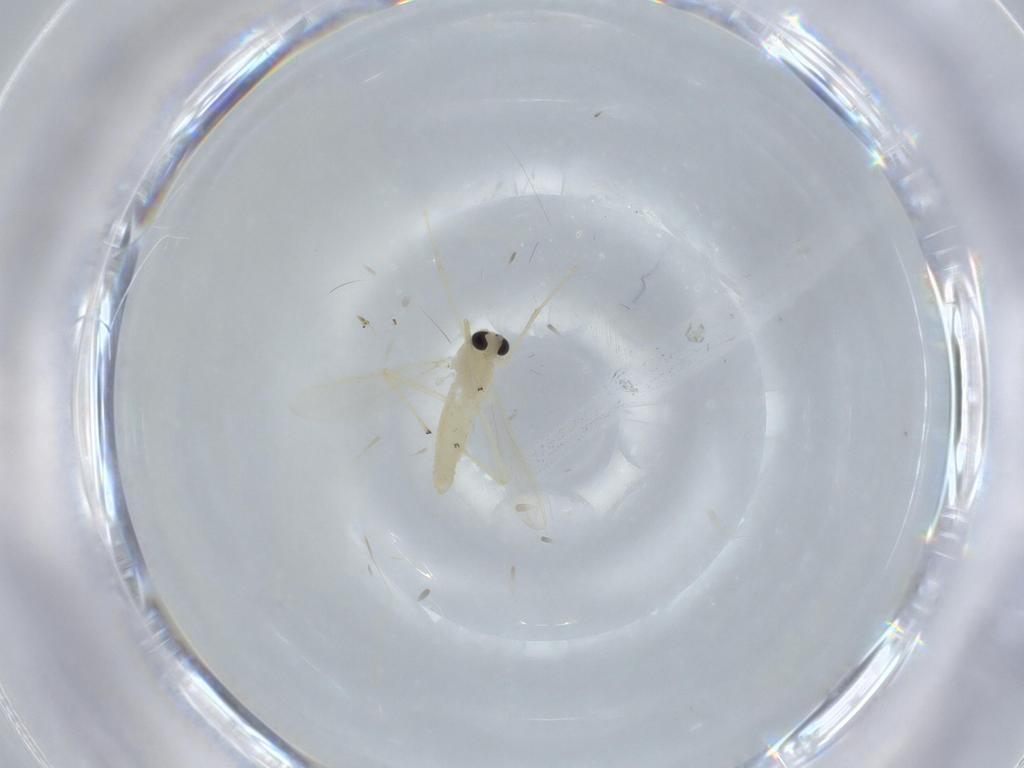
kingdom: Animalia
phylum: Arthropoda
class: Insecta
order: Diptera
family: Chironomidae
